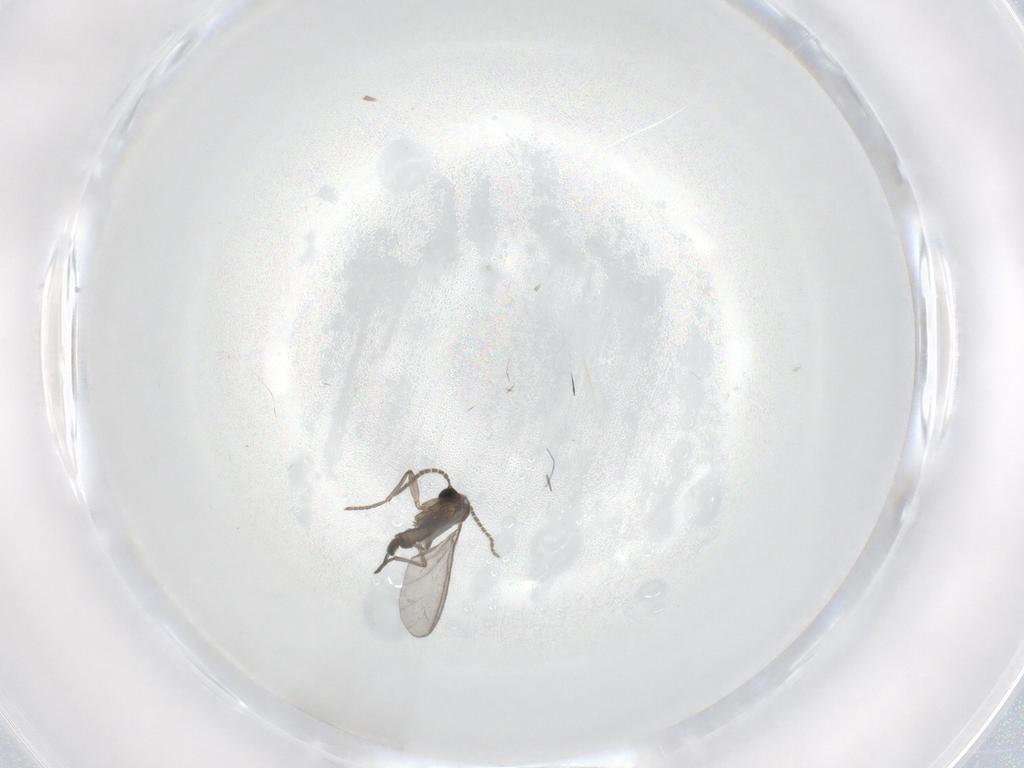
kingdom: Animalia
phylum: Arthropoda
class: Insecta
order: Diptera
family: Sciaridae
